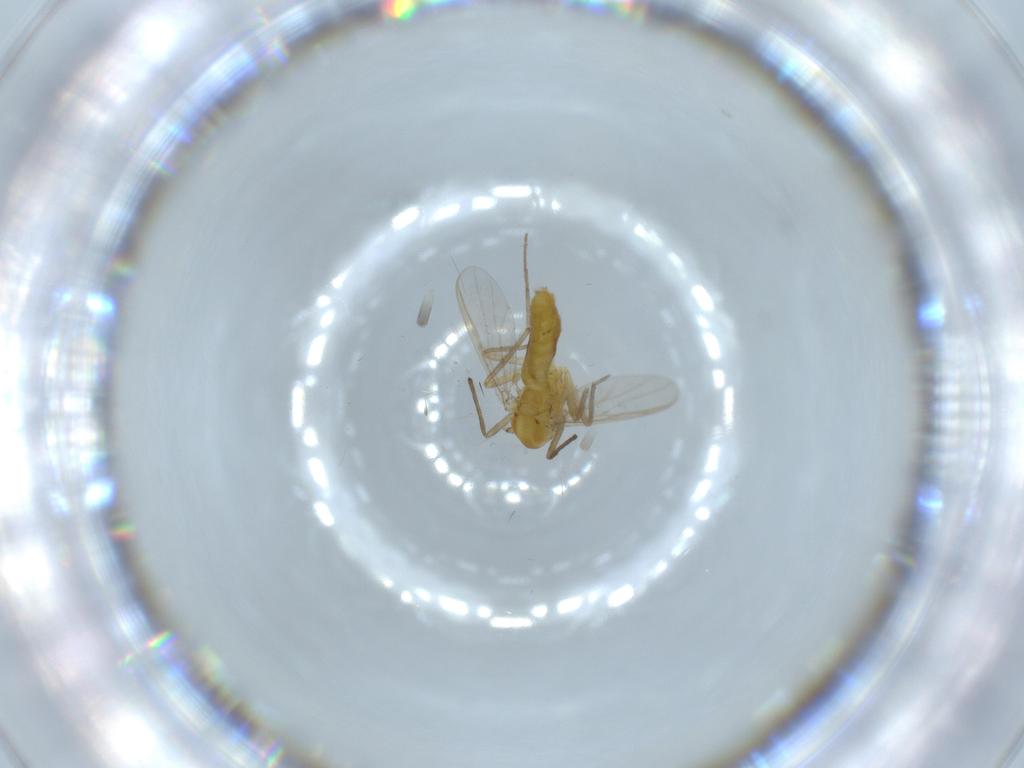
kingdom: Animalia
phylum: Arthropoda
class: Insecta
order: Diptera
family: Chironomidae
